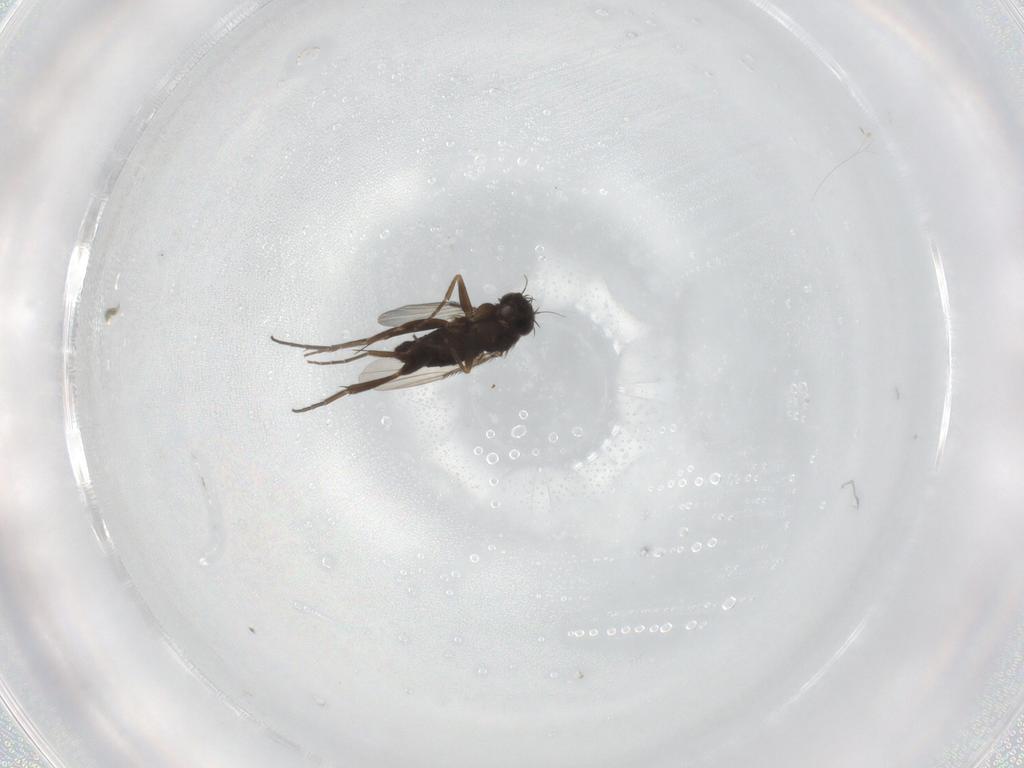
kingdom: Animalia
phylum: Arthropoda
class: Insecta
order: Diptera
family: Phoridae
